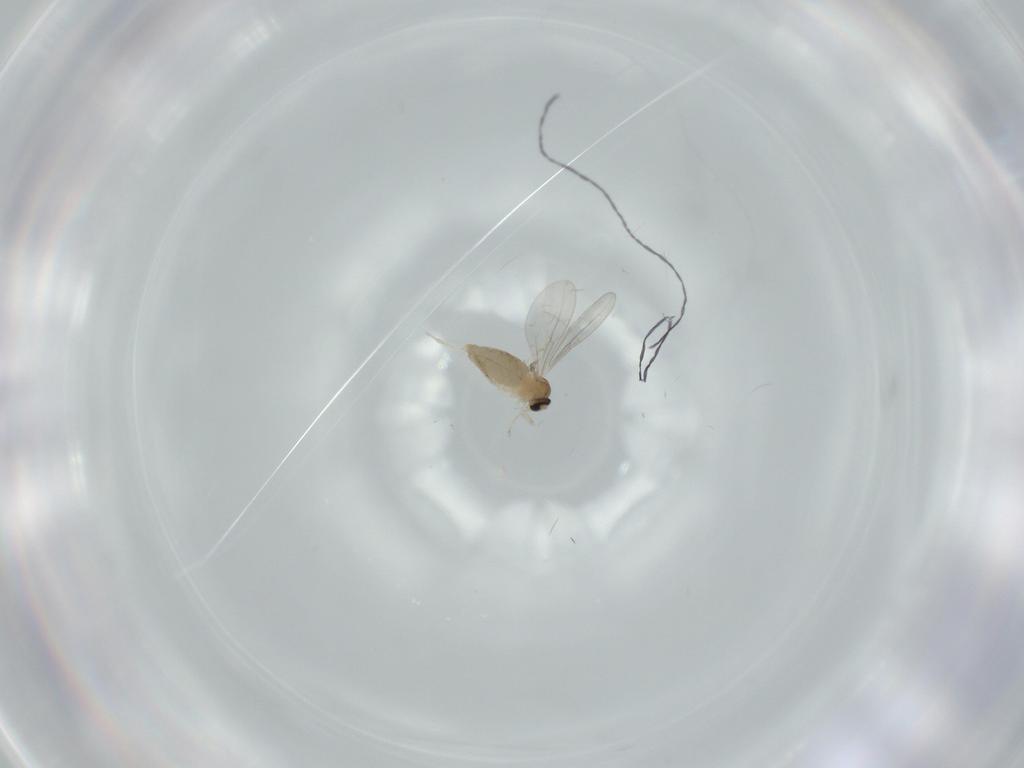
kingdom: Animalia
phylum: Arthropoda
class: Insecta
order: Diptera
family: Cecidomyiidae
